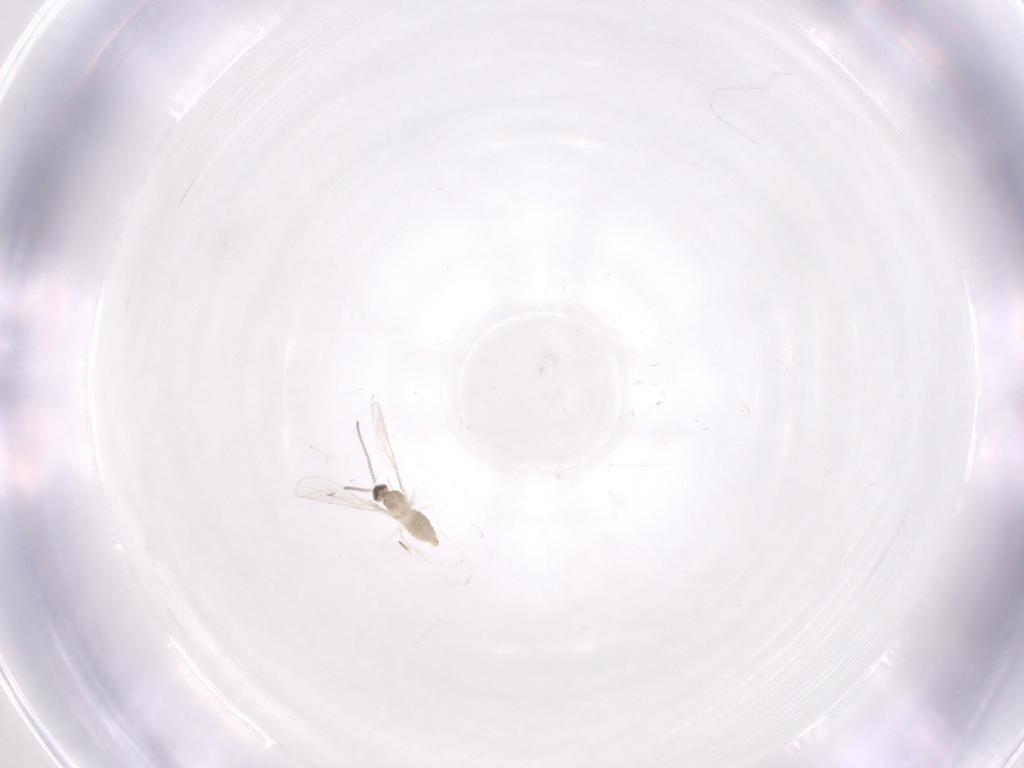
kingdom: Animalia
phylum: Arthropoda
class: Insecta
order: Diptera
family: Cecidomyiidae
